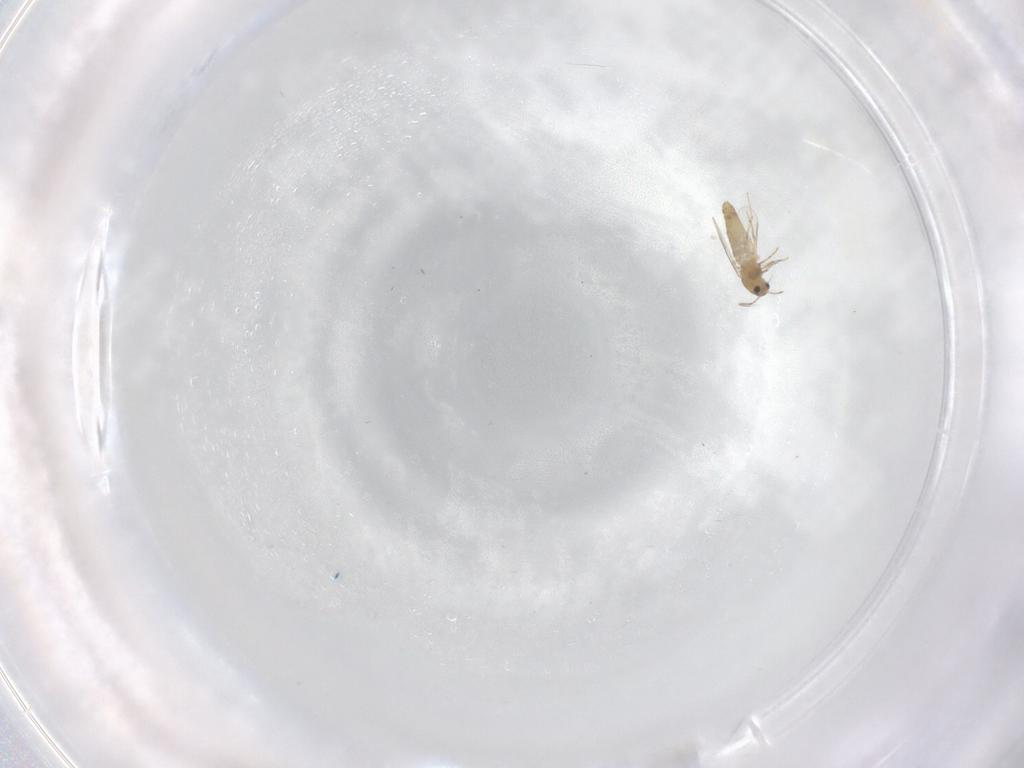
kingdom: Animalia
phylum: Arthropoda
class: Insecta
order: Diptera
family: Chironomidae
